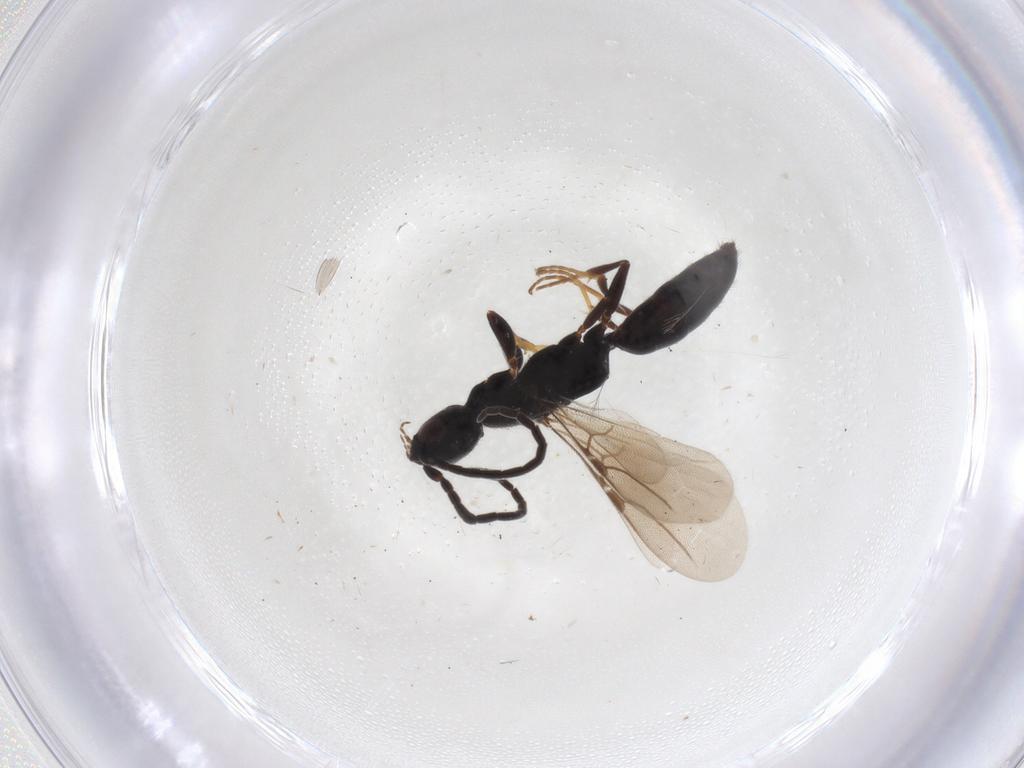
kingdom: Animalia
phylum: Arthropoda
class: Insecta
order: Hymenoptera
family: Bethylidae
